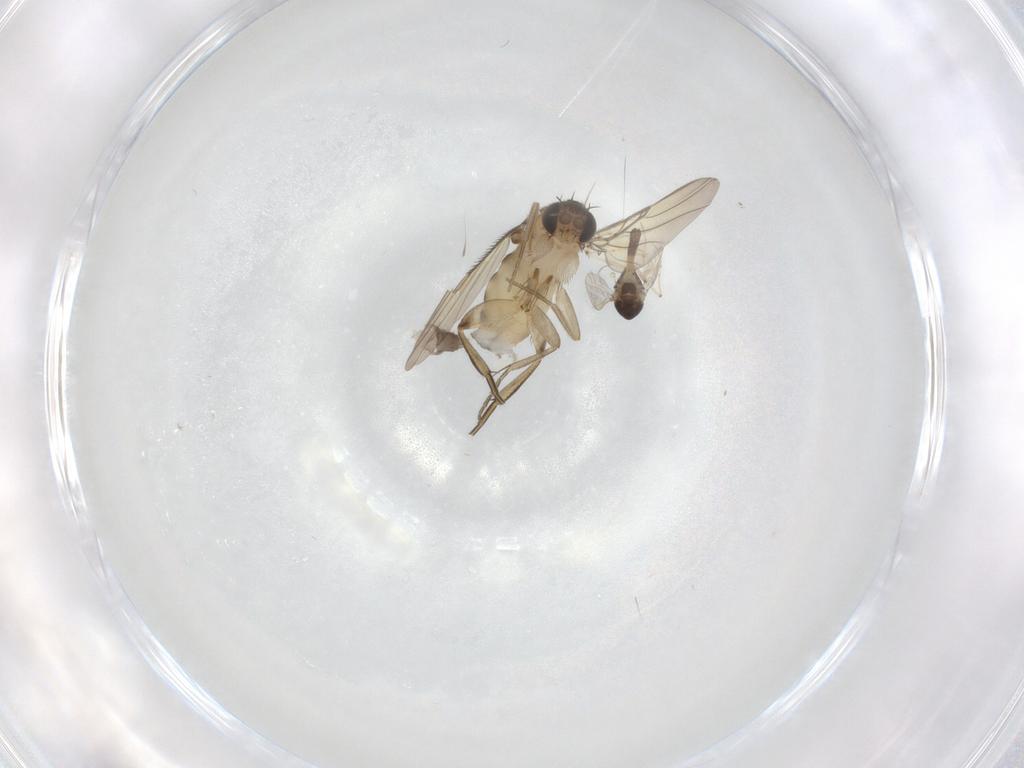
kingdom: Animalia
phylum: Arthropoda
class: Insecta
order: Diptera
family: Phoridae
